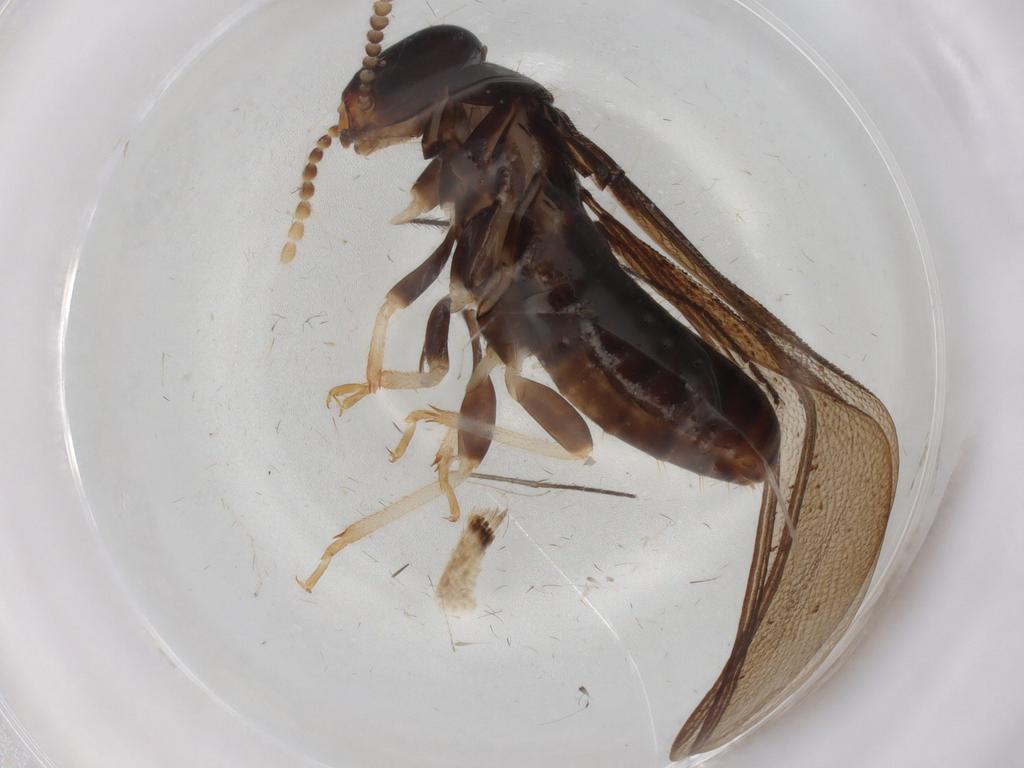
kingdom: Animalia
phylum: Arthropoda
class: Insecta
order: Blattodea
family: Kalotermitidae
